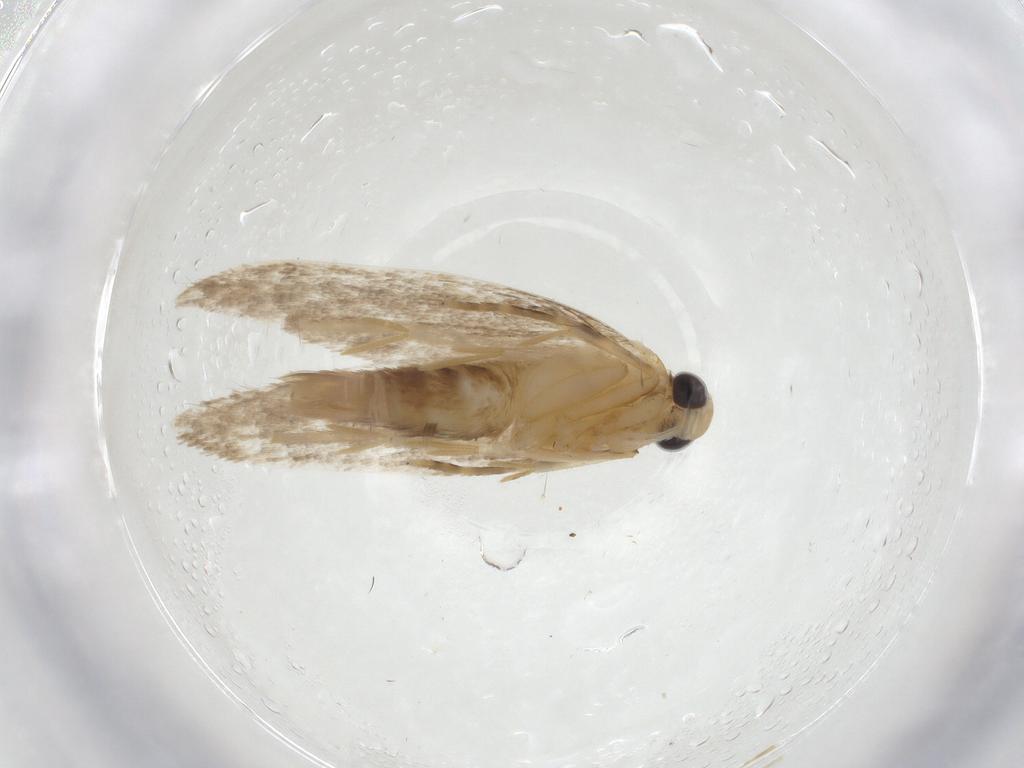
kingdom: Animalia
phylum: Arthropoda
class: Insecta
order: Lepidoptera
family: Autostichidae
